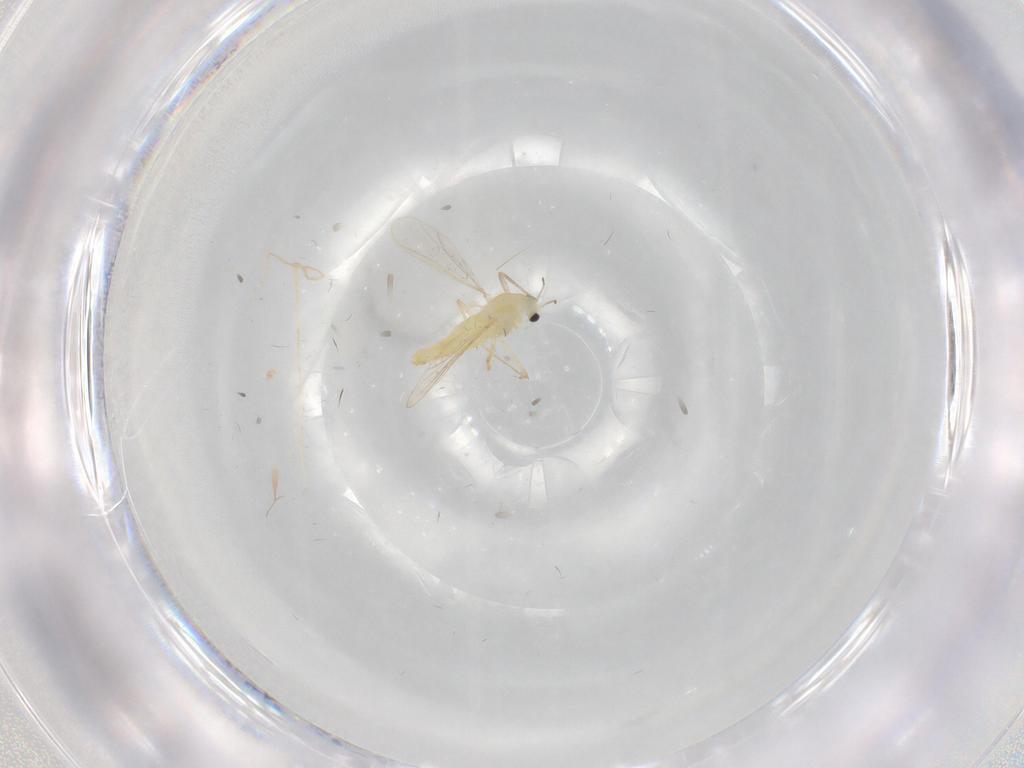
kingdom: Animalia
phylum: Arthropoda
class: Insecta
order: Diptera
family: Chironomidae
